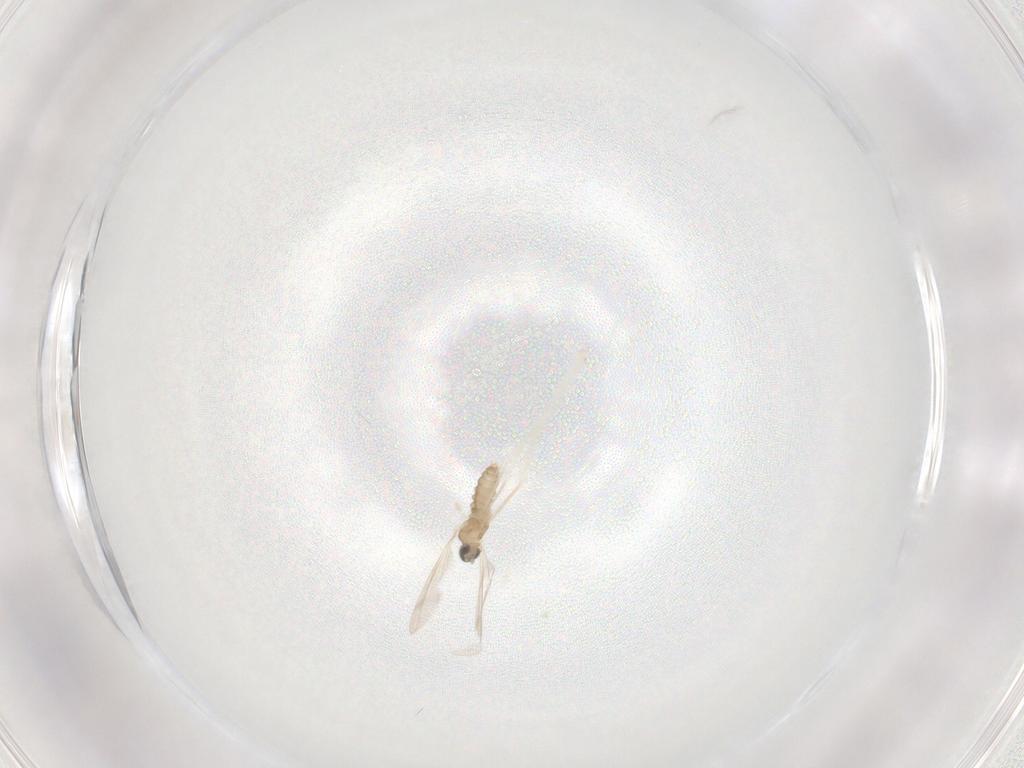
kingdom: Animalia
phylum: Arthropoda
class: Insecta
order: Diptera
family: Cecidomyiidae
